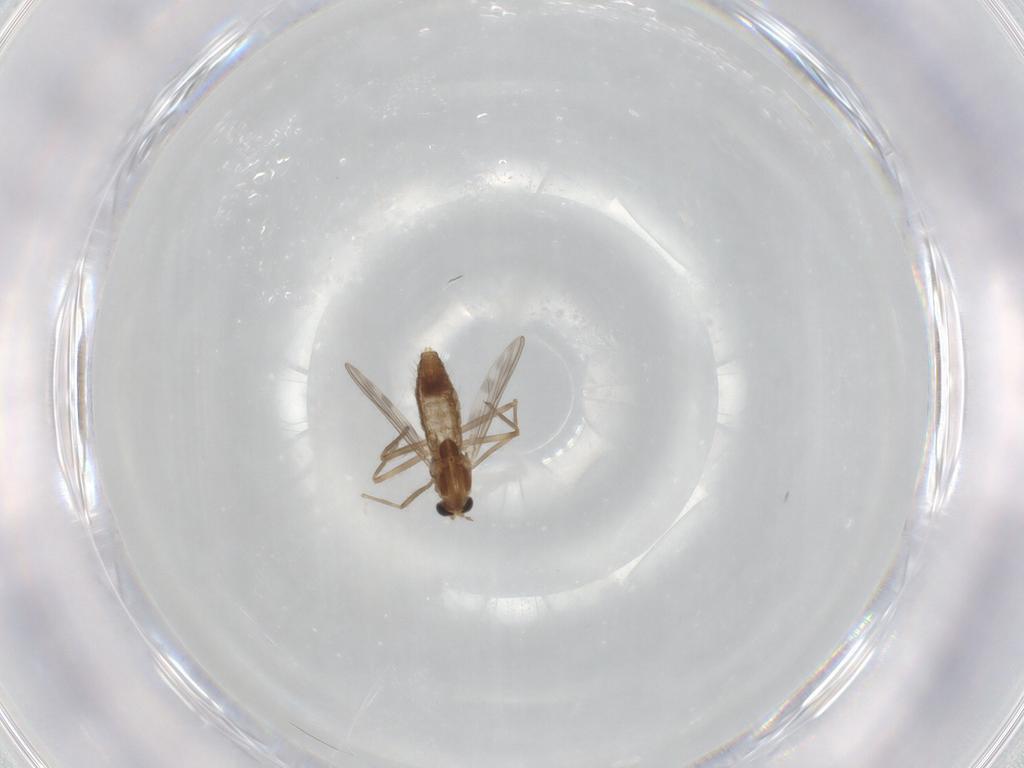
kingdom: Animalia
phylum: Arthropoda
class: Insecta
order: Diptera
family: Chironomidae
